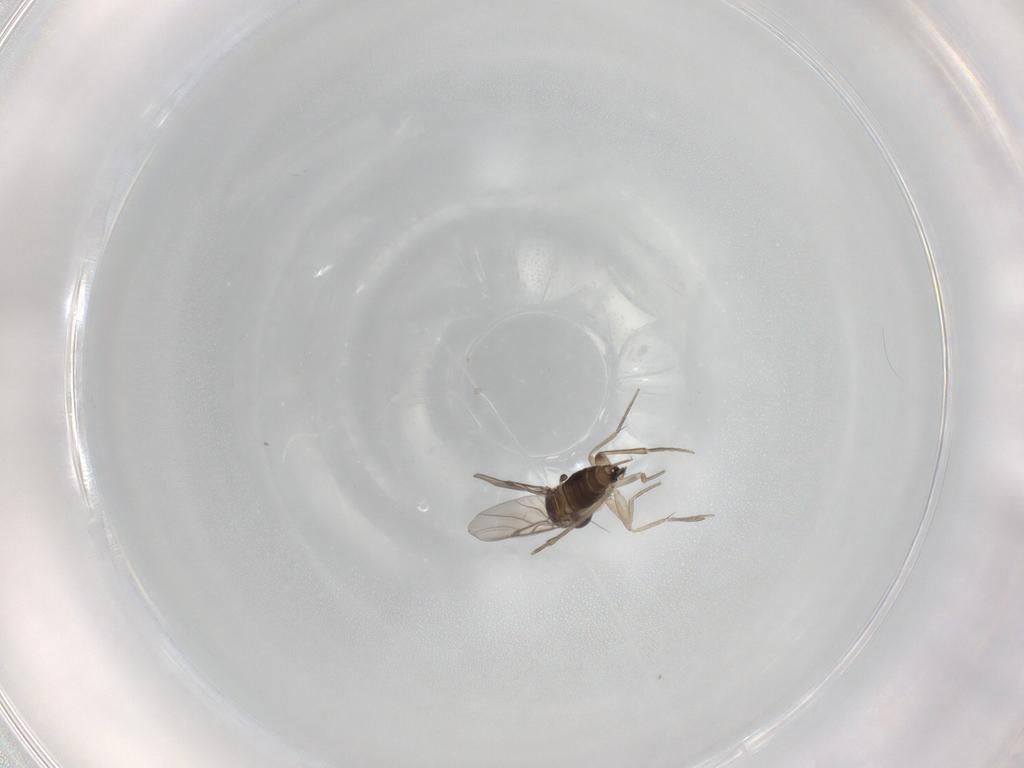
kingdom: Animalia
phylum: Arthropoda
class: Insecta
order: Diptera
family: Phoridae
